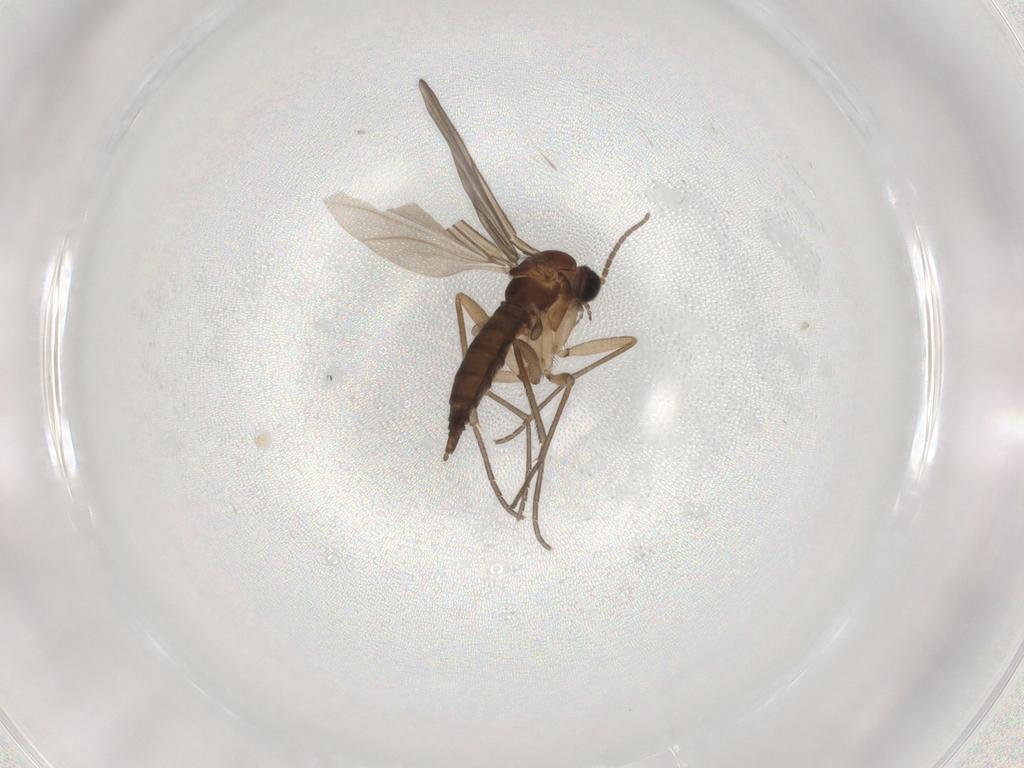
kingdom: Animalia
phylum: Arthropoda
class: Insecta
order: Diptera
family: Sciaridae
